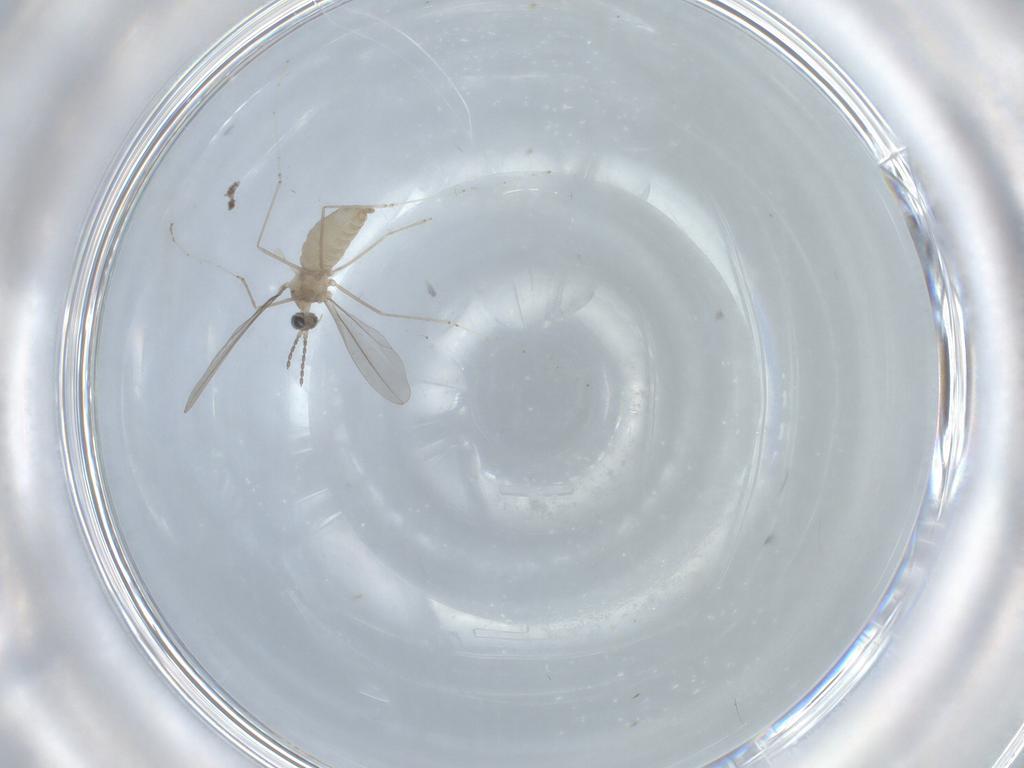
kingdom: Animalia
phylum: Arthropoda
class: Insecta
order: Diptera
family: Cecidomyiidae
